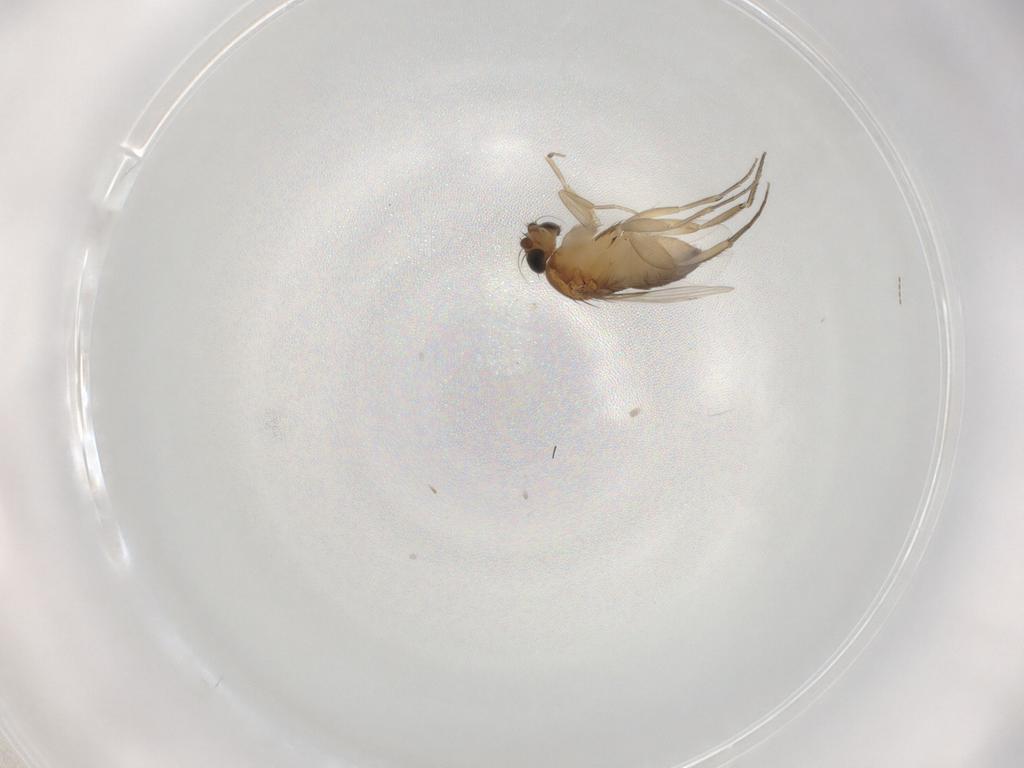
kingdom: Animalia
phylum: Arthropoda
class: Insecta
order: Diptera
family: Phoridae
